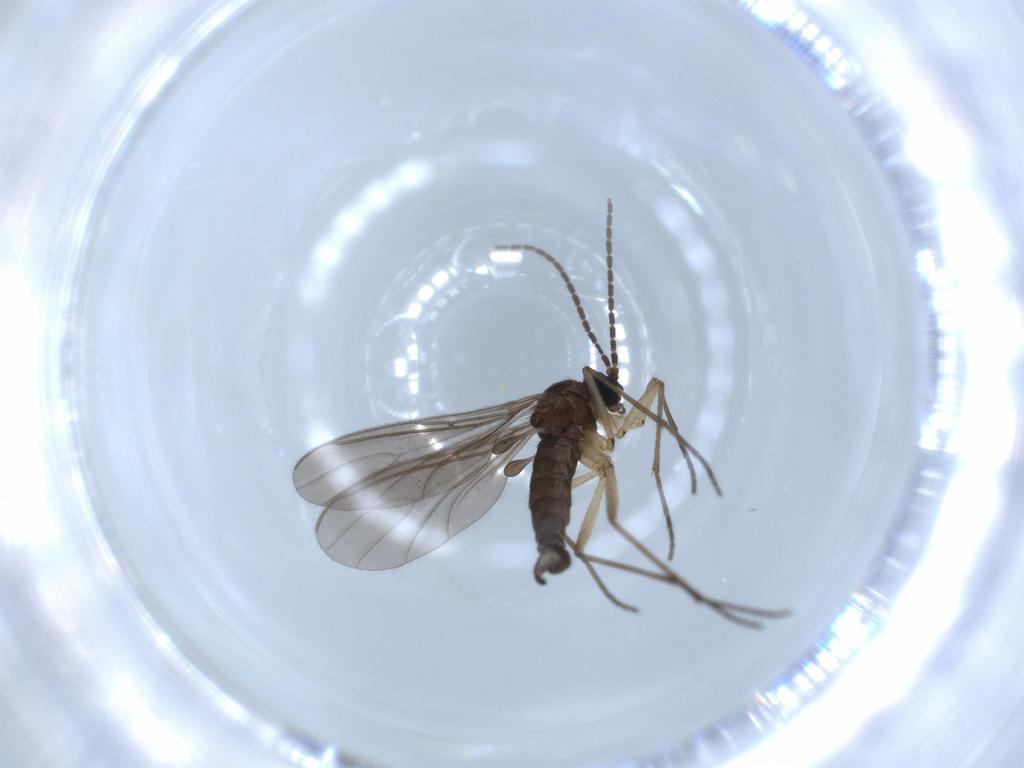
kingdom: Animalia
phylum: Arthropoda
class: Insecta
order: Diptera
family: Sciaridae
